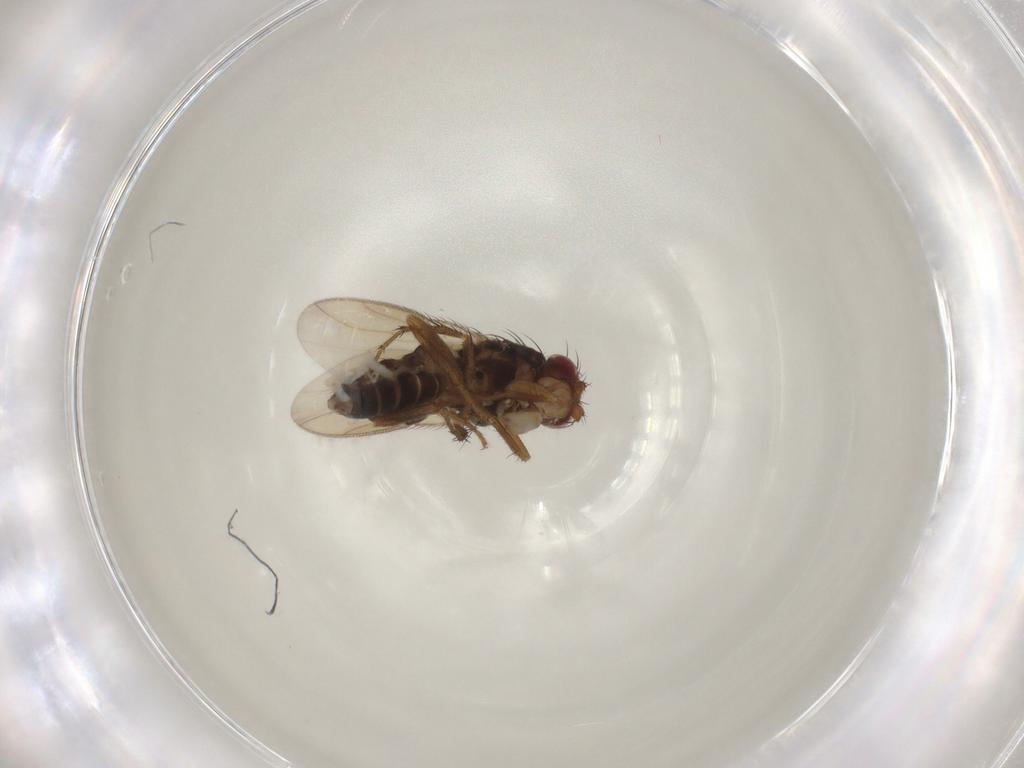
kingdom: Animalia
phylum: Arthropoda
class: Insecta
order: Diptera
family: Sphaeroceridae
